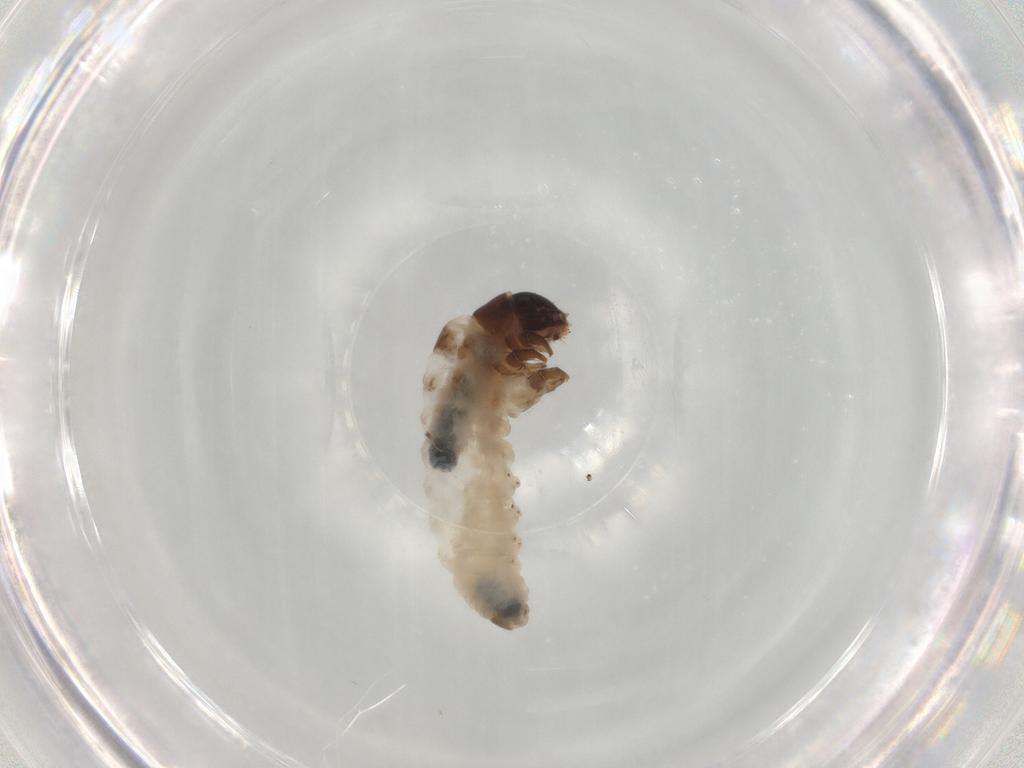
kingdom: Animalia
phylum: Arthropoda
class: Insecta
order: Lepidoptera
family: Psychidae
